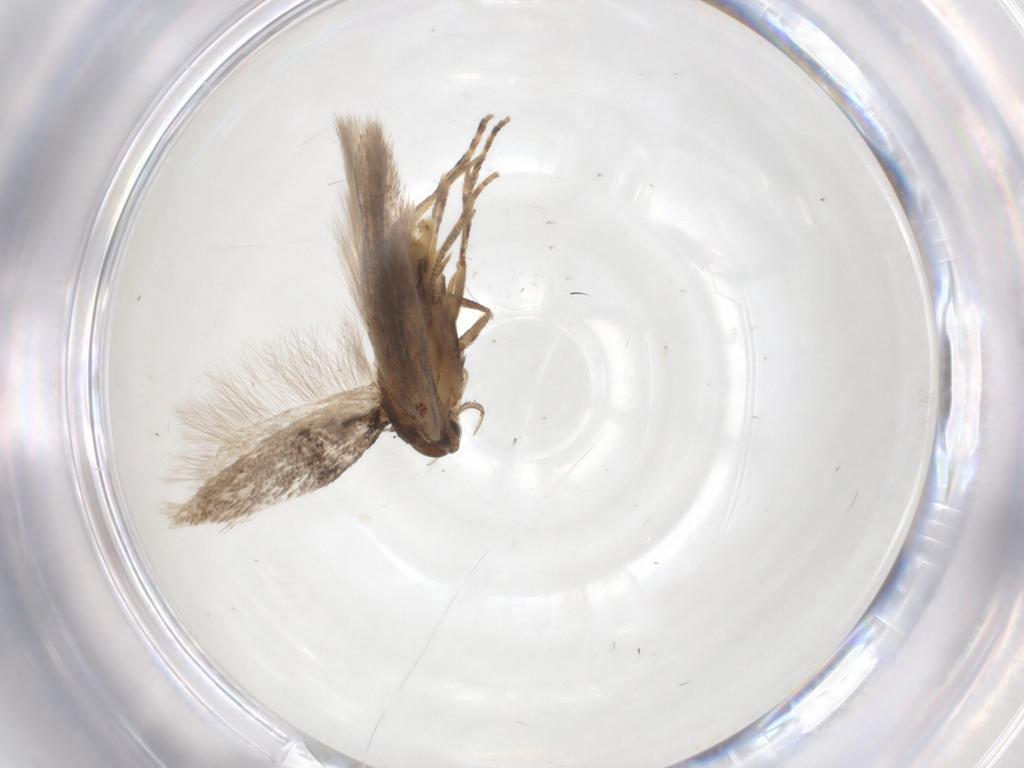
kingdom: Animalia
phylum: Arthropoda
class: Insecta
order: Lepidoptera
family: Gelechiidae
